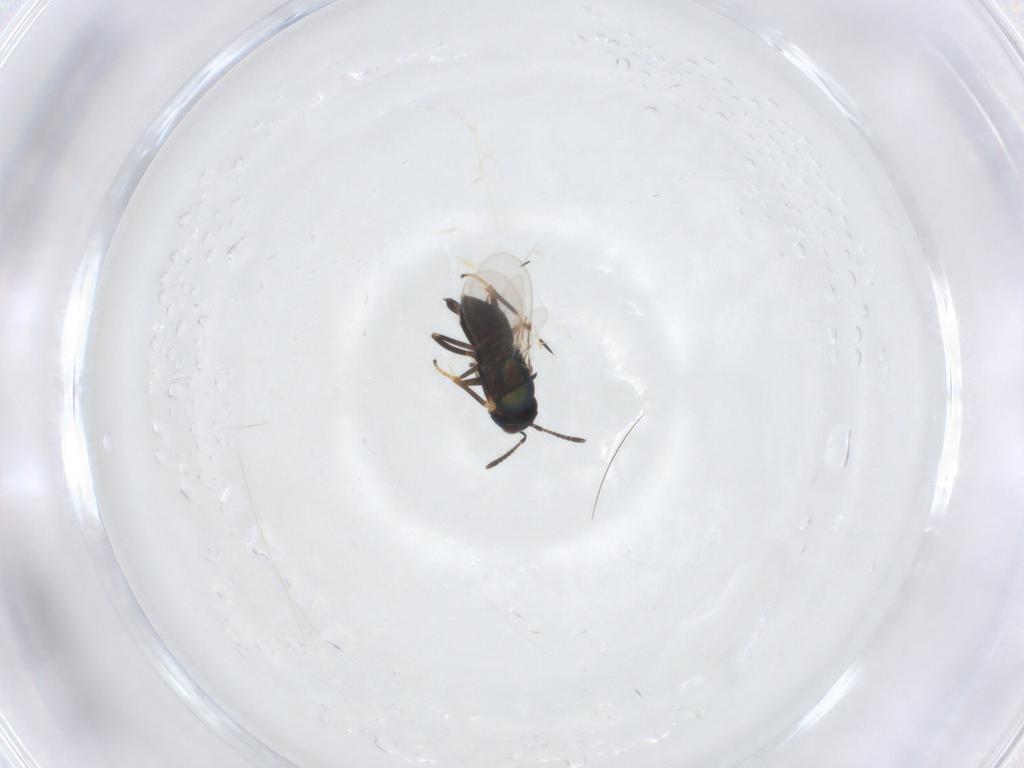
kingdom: Animalia
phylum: Arthropoda
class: Insecta
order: Hymenoptera
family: Encyrtidae
